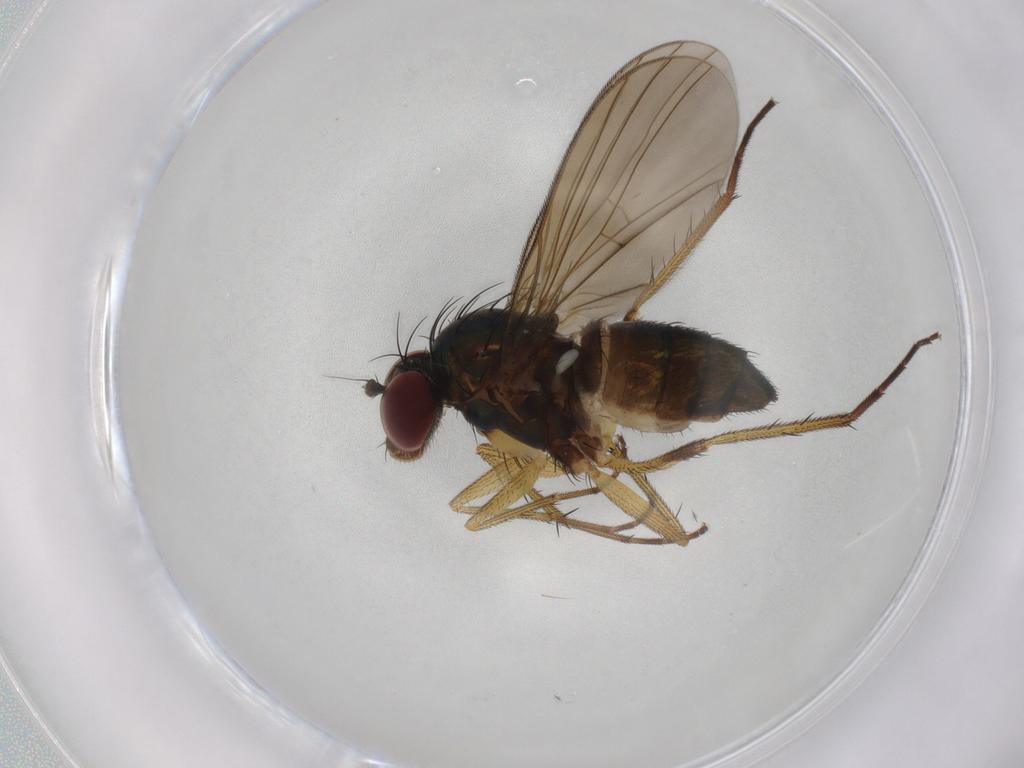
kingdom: Animalia
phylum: Arthropoda
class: Insecta
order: Diptera
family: Dolichopodidae
